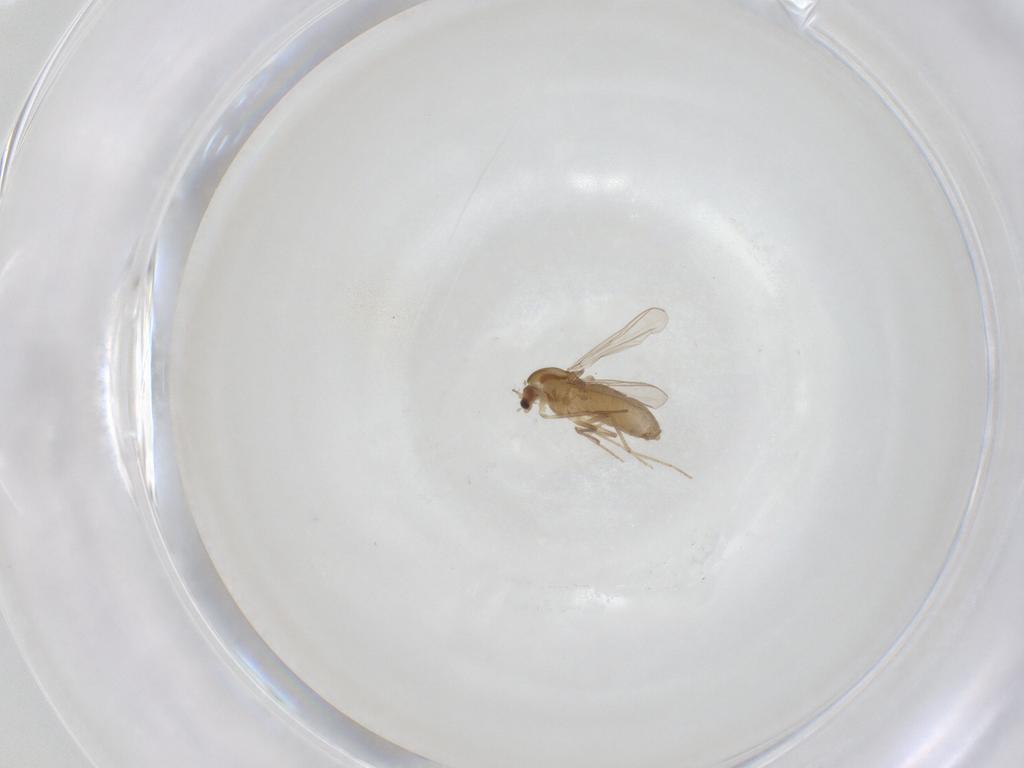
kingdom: Animalia
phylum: Arthropoda
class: Insecta
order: Diptera
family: Chironomidae
